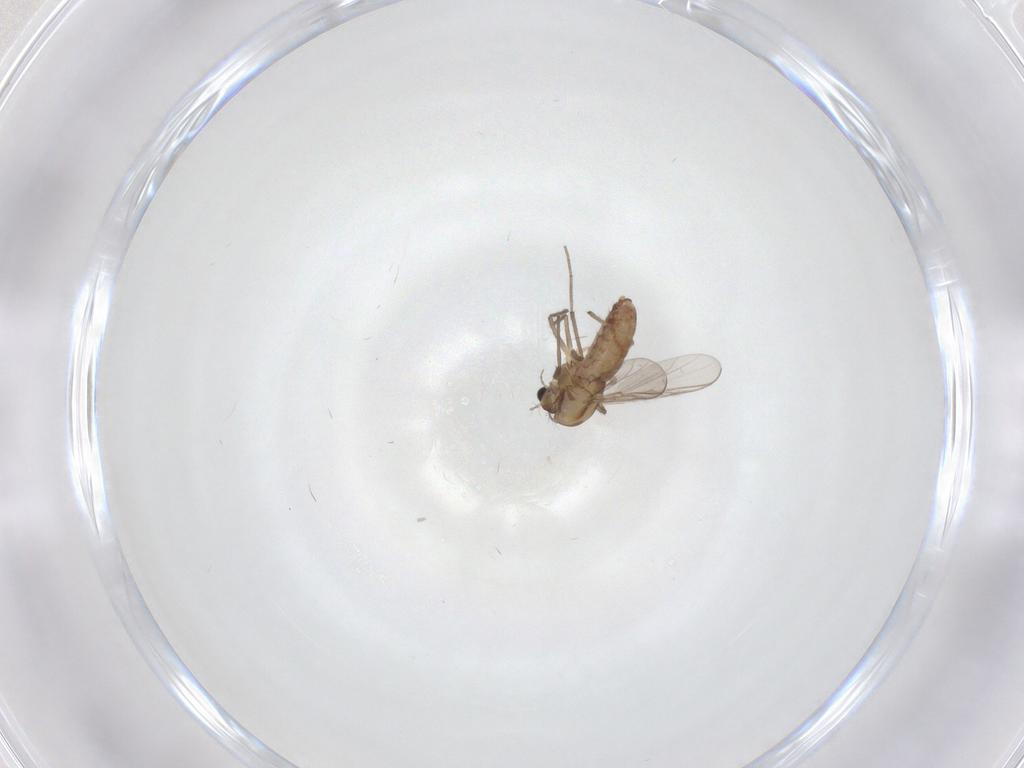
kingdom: Animalia
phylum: Arthropoda
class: Insecta
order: Diptera
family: Chironomidae
